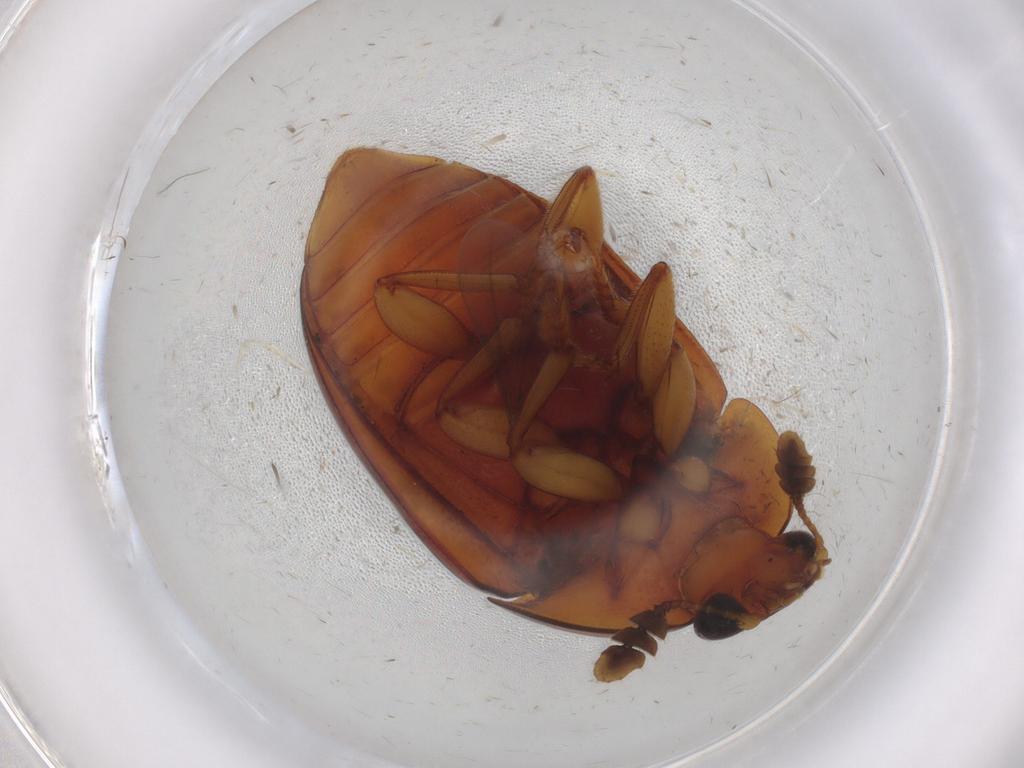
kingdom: Animalia
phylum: Arthropoda
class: Insecta
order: Coleoptera
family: Nitidulidae
